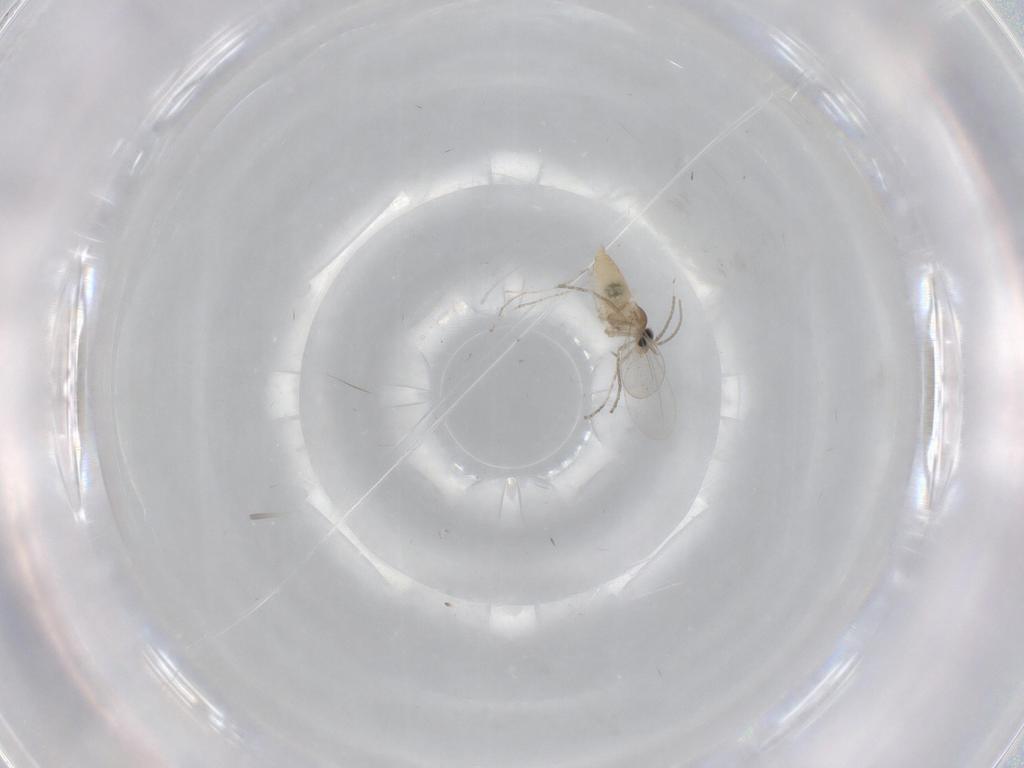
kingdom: Animalia
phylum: Arthropoda
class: Insecta
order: Diptera
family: Cecidomyiidae
